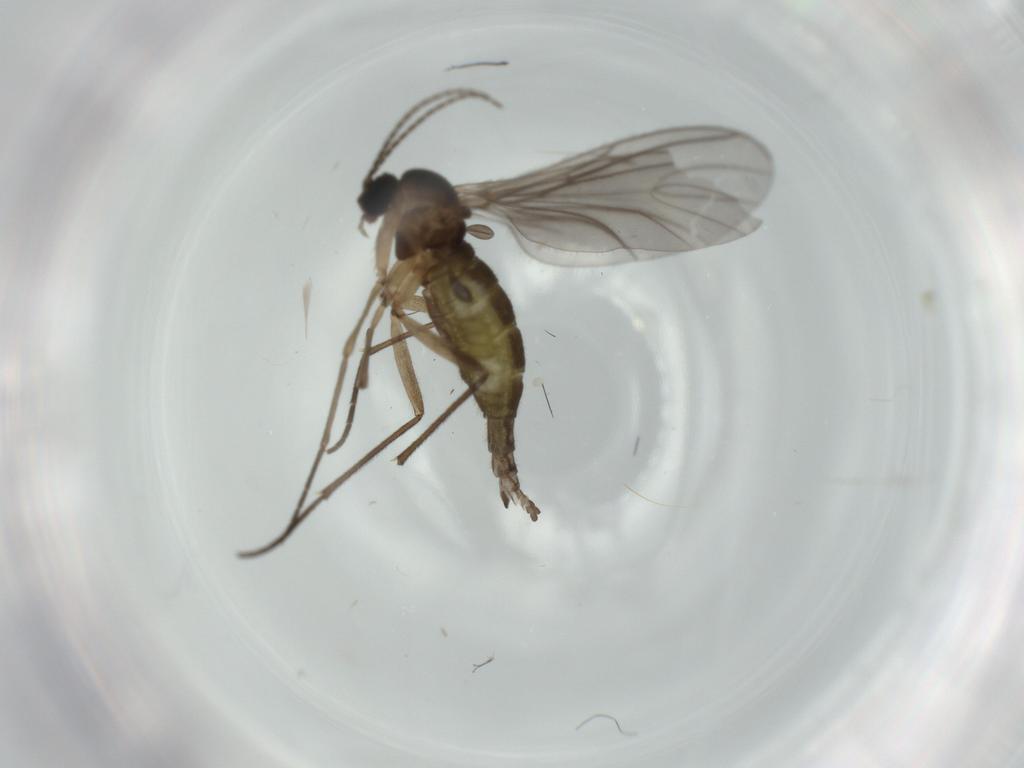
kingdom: Animalia
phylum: Arthropoda
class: Insecta
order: Diptera
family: Sciaridae
